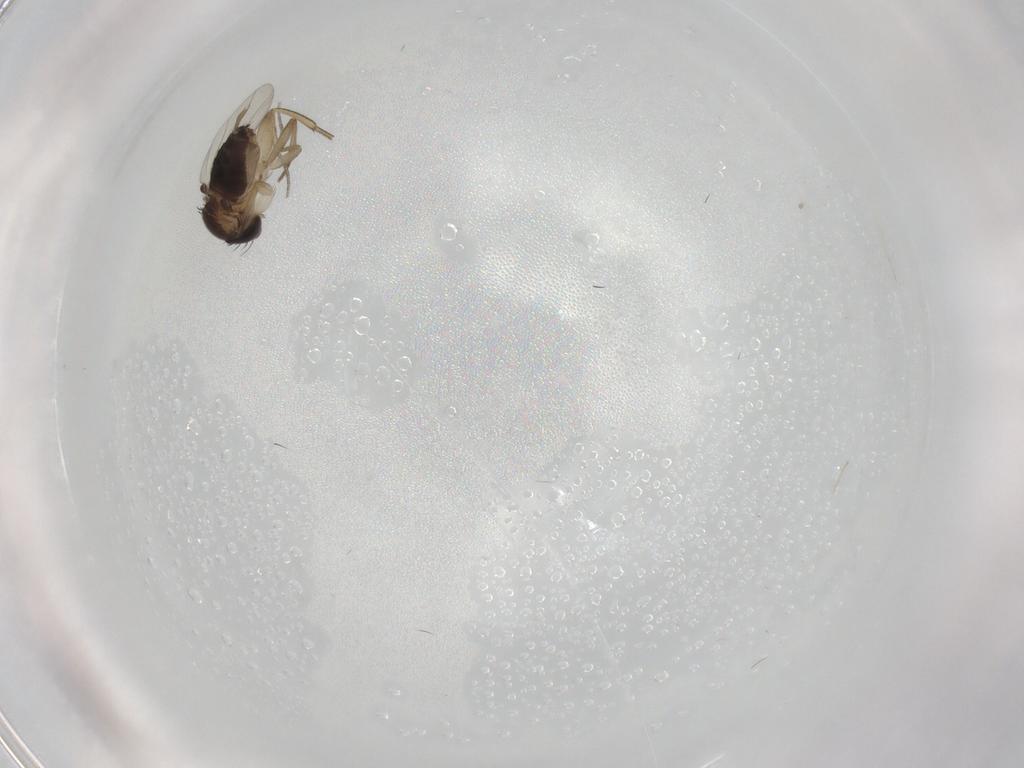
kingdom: Animalia
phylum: Arthropoda
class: Insecta
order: Diptera
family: Cecidomyiidae
